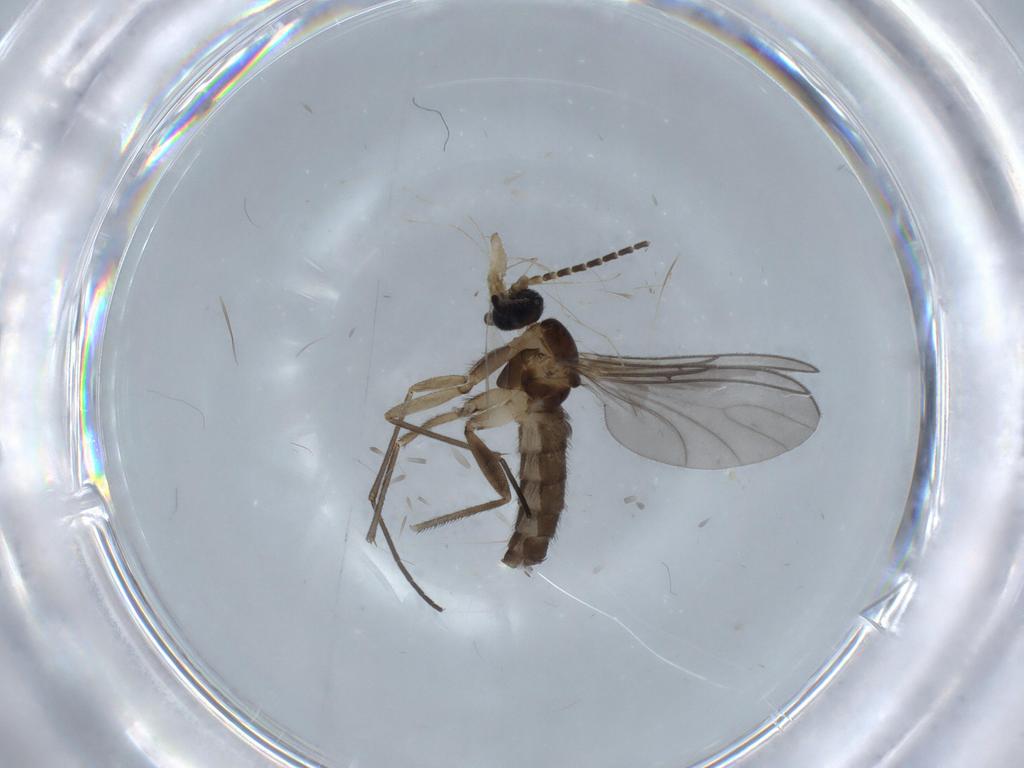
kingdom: Animalia
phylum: Arthropoda
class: Insecta
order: Diptera
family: Sciaridae
